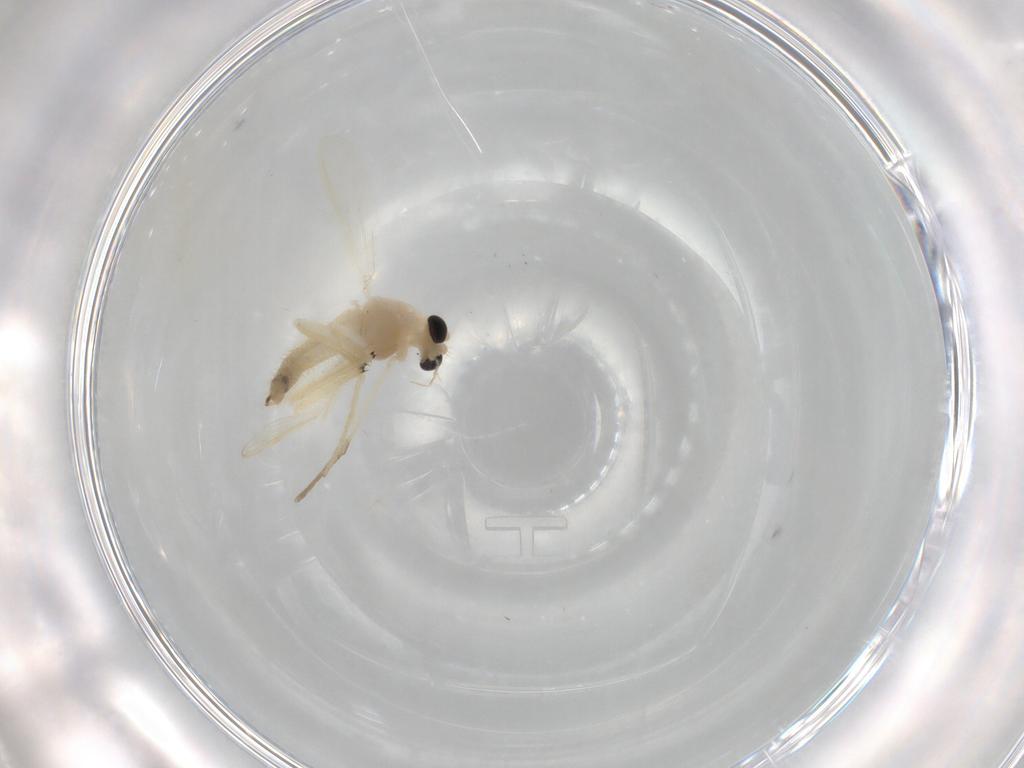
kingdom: Animalia
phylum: Arthropoda
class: Insecta
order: Diptera
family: Chironomidae
